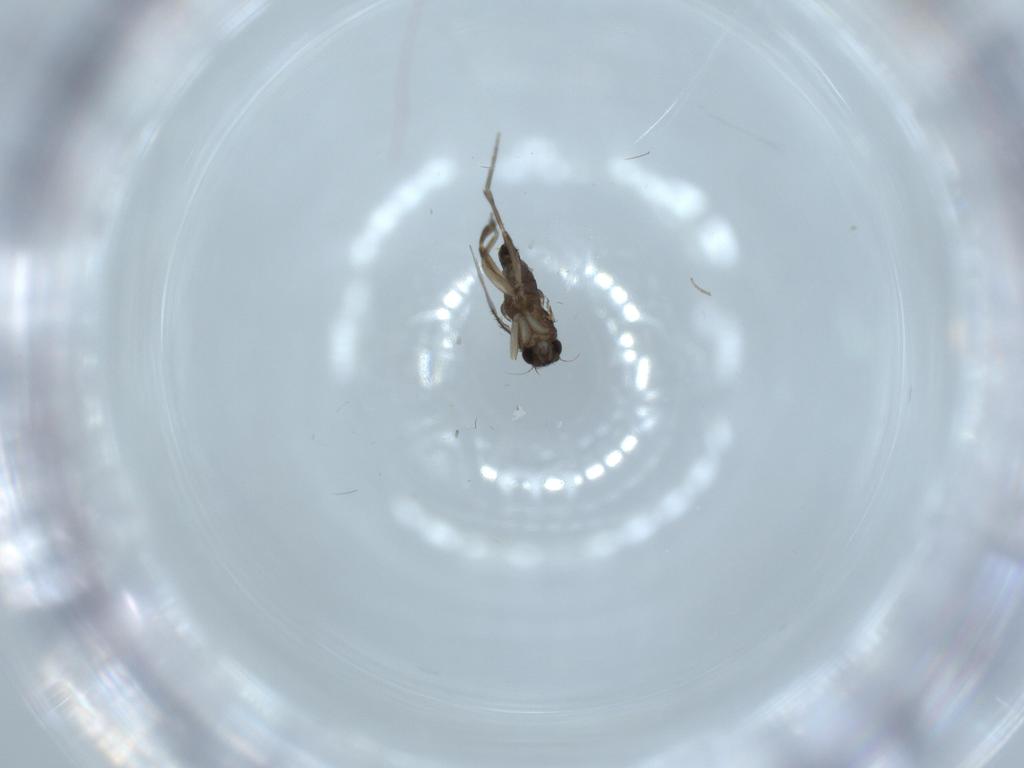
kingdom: Animalia
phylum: Arthropoda
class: Insecta
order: Diptera
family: Phoridae
